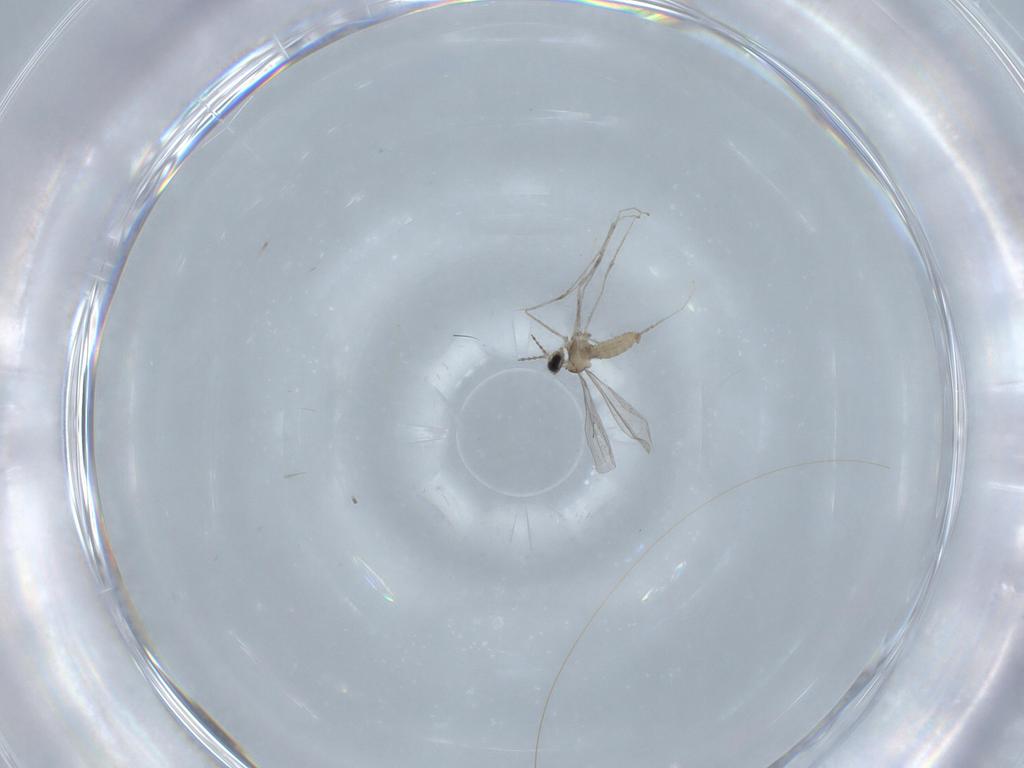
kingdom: Animalia
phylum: Arthropoda
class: Insecta
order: Diptera
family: Cecidomyiidae
